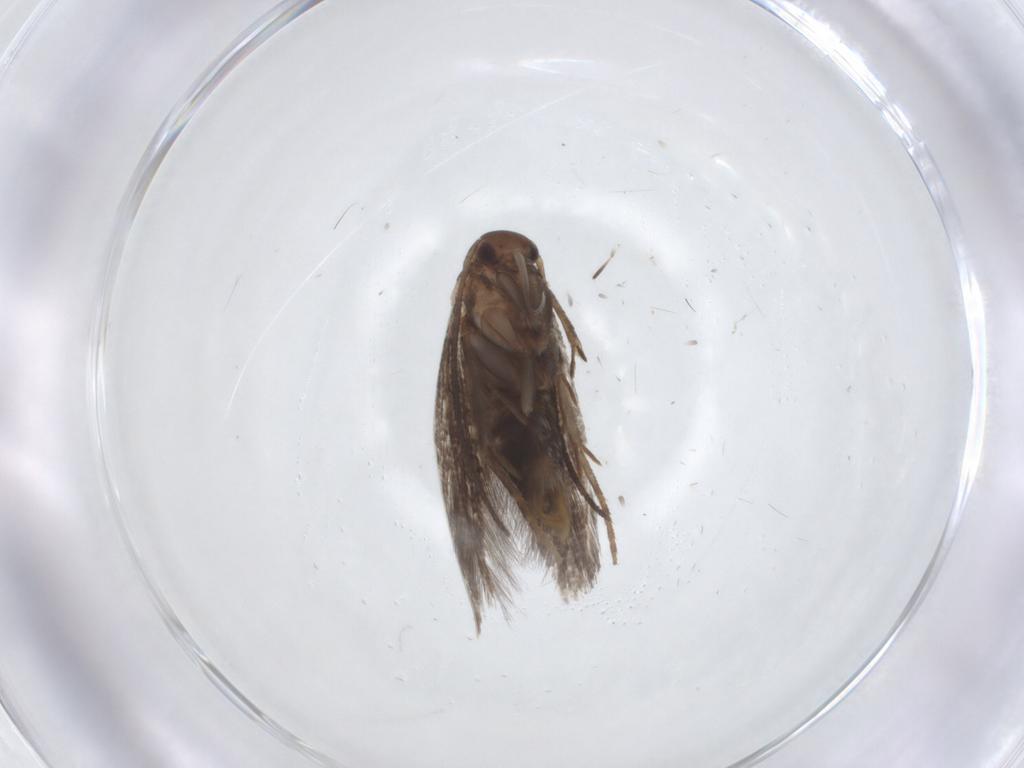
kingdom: Animalia
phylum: Arthropoda
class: Insecta
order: Lepidoptera
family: Elachistidae
